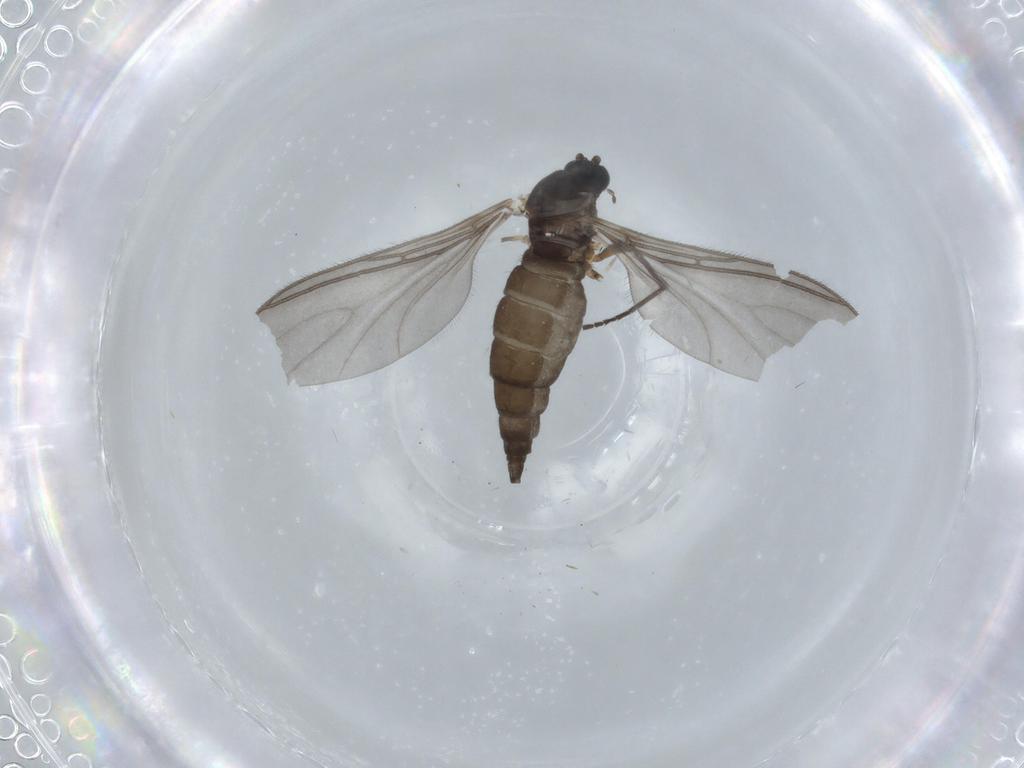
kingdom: Animalia
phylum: Arthropoda
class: Insecta
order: Diptera
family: Sciaridae
